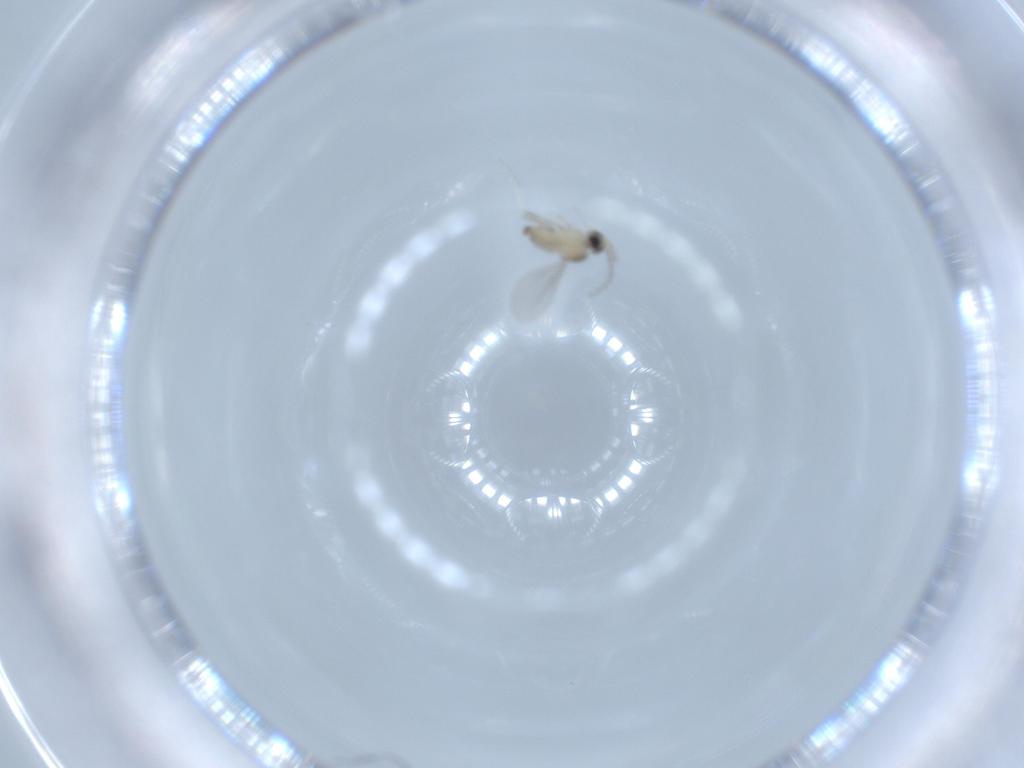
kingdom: Animalia
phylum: Arthropoda
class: Insecta
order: Diptera
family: Cecidomyiidae
